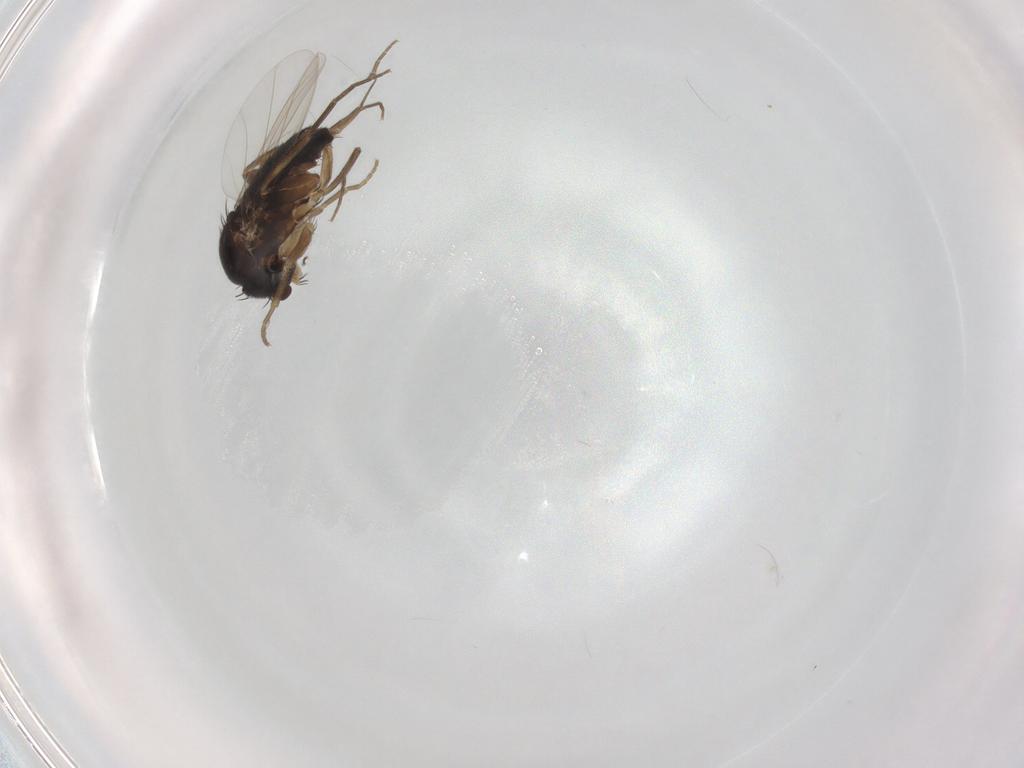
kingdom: Animalia
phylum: Arthropoda
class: Insecta
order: Diptera
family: Phoridae
